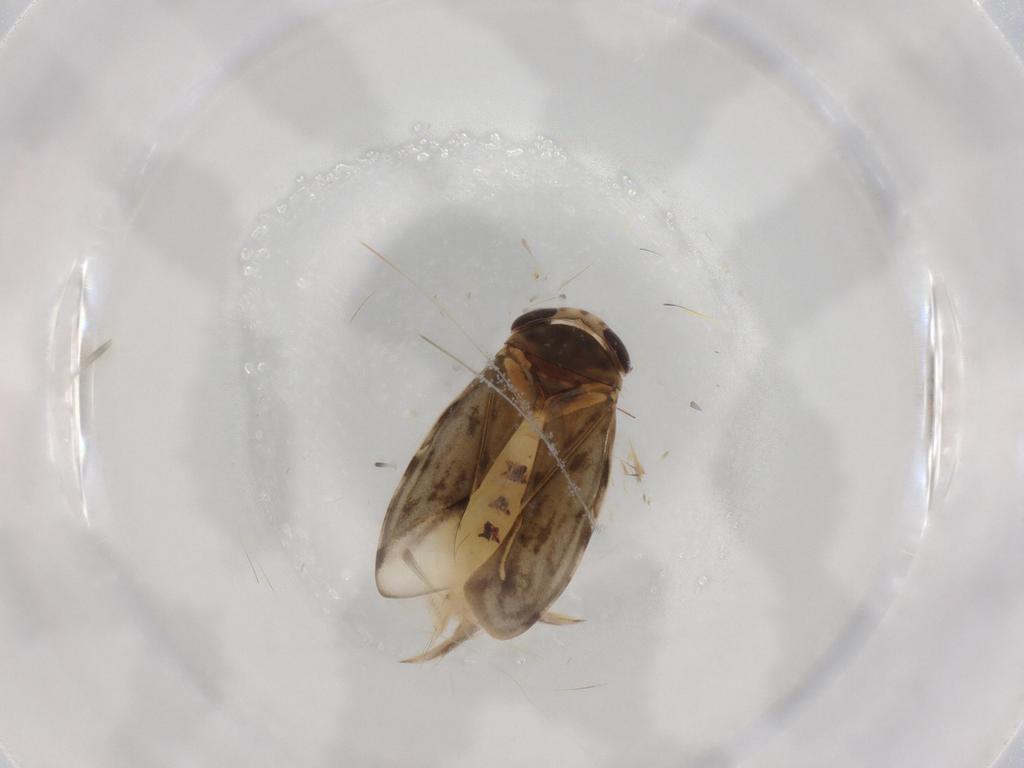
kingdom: Animalia
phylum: Arthropoda
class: Insecta
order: Hemiptera
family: Corixidae
